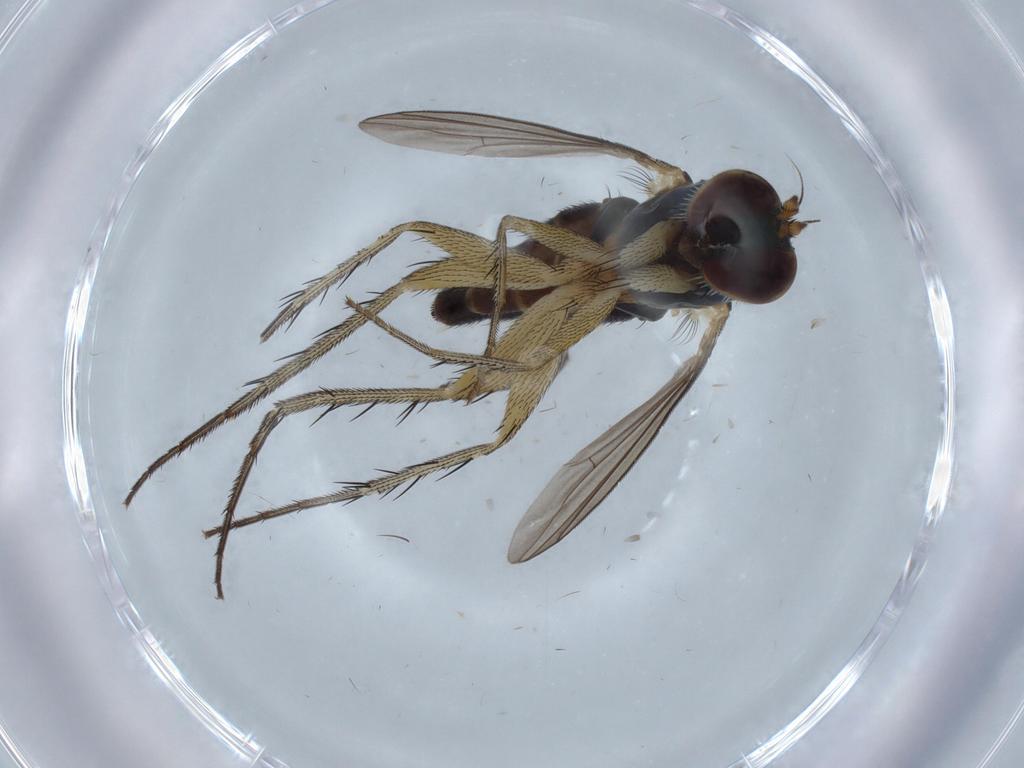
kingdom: Animalia
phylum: Arthropoda
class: Insecta
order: Diptera
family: Dolichopodidae
